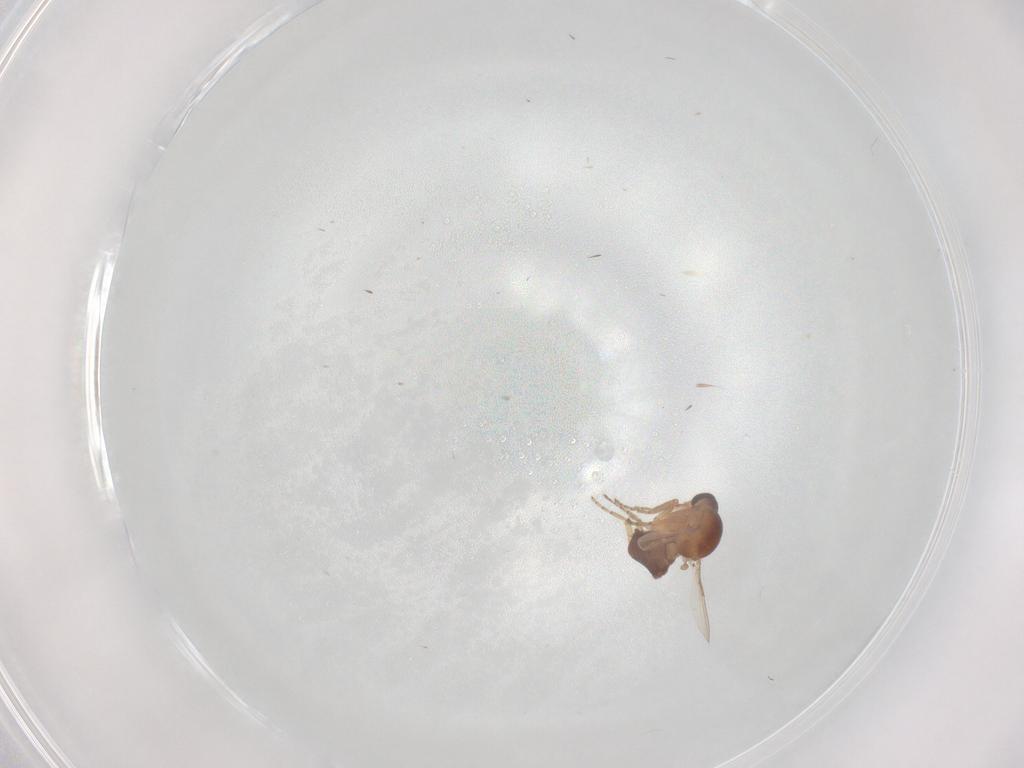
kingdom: Animalia
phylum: Arthropoda
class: Insecta
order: Diptera
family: Ceratopogonidae
